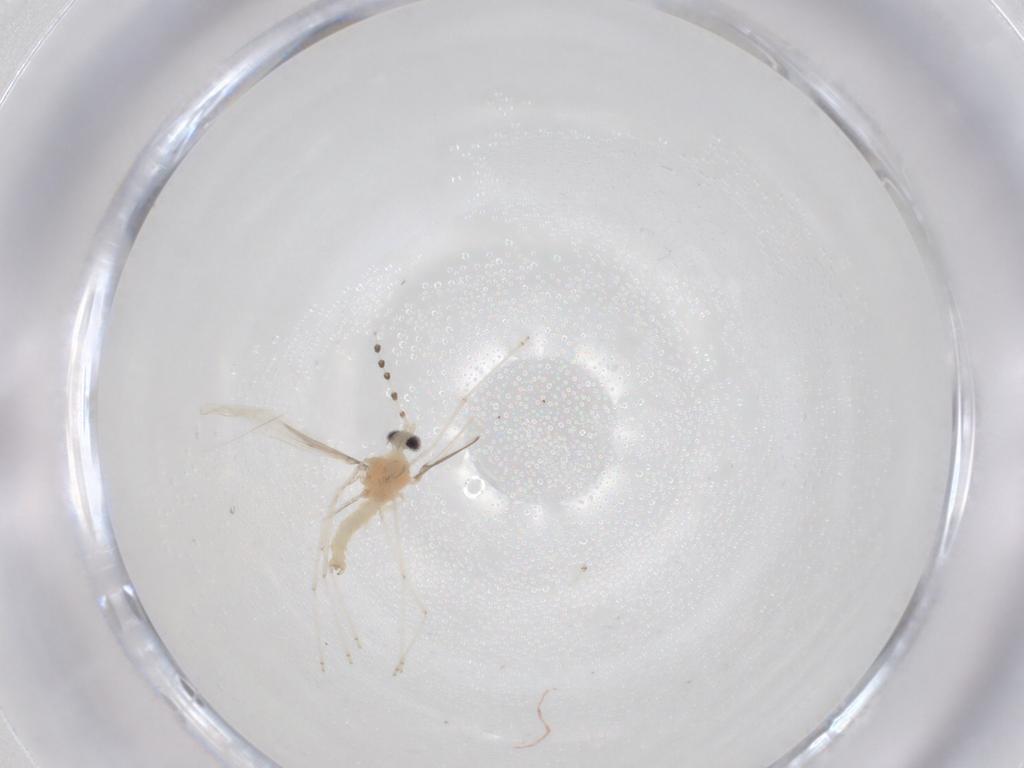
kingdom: Animalia
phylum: Arthropoda
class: Insecta
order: Diptera
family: Cecidomyiidae
